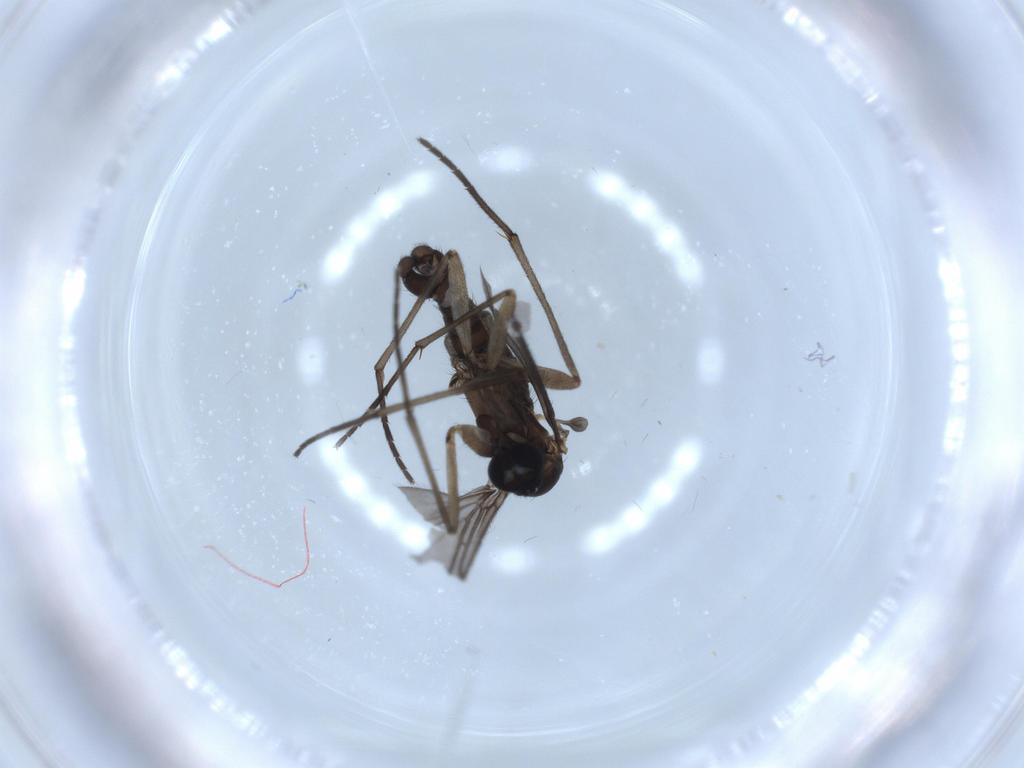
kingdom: Animalia
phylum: Arthropoda
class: Insecta
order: Diptera
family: Sciaridae
